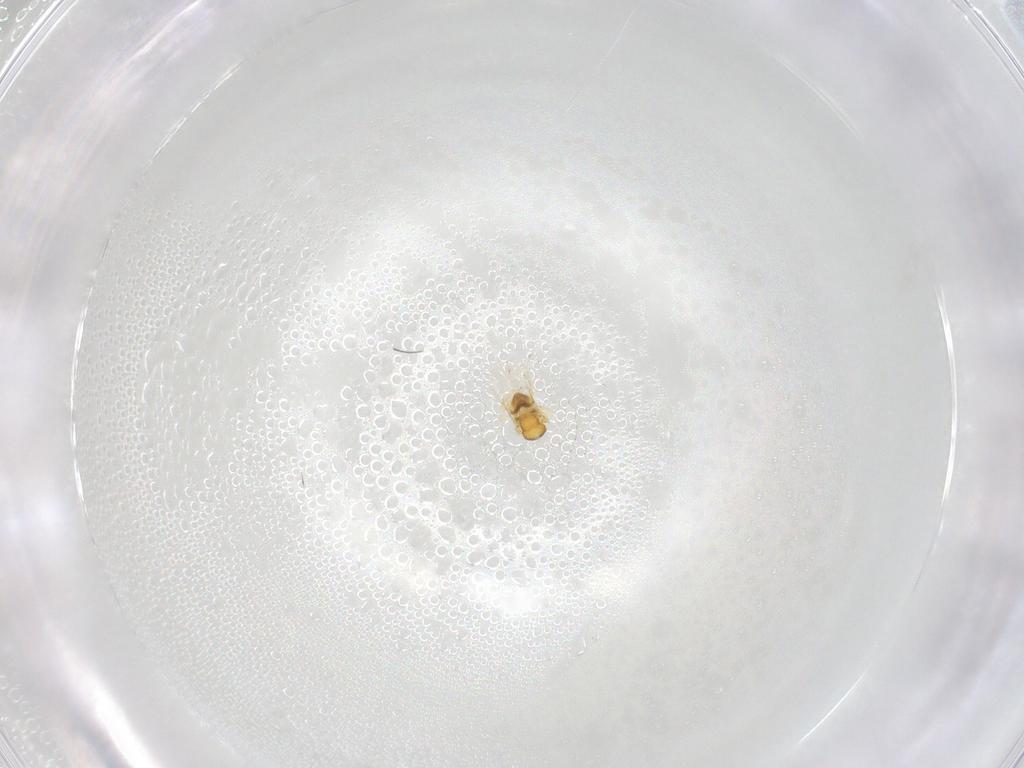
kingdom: Animalia
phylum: Arthropoda
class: Insecta
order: Hymenoptera
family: Encyrtidae
